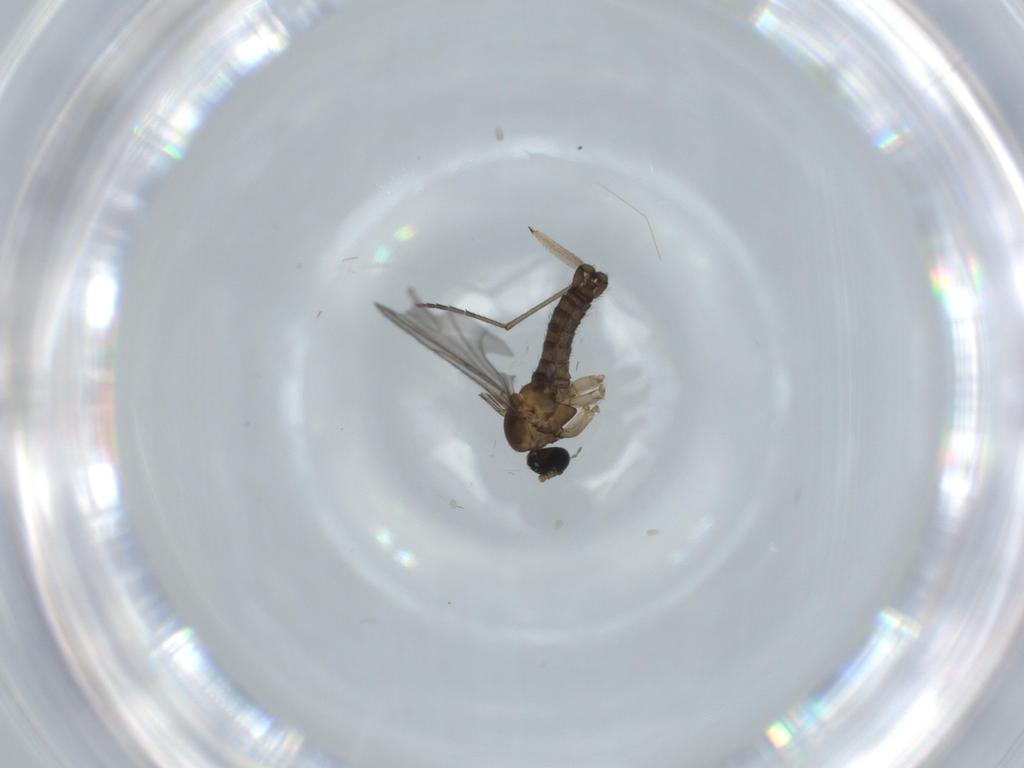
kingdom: Animalia
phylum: Arthropoda
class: Insecta
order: Diptera
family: Sciaridae
